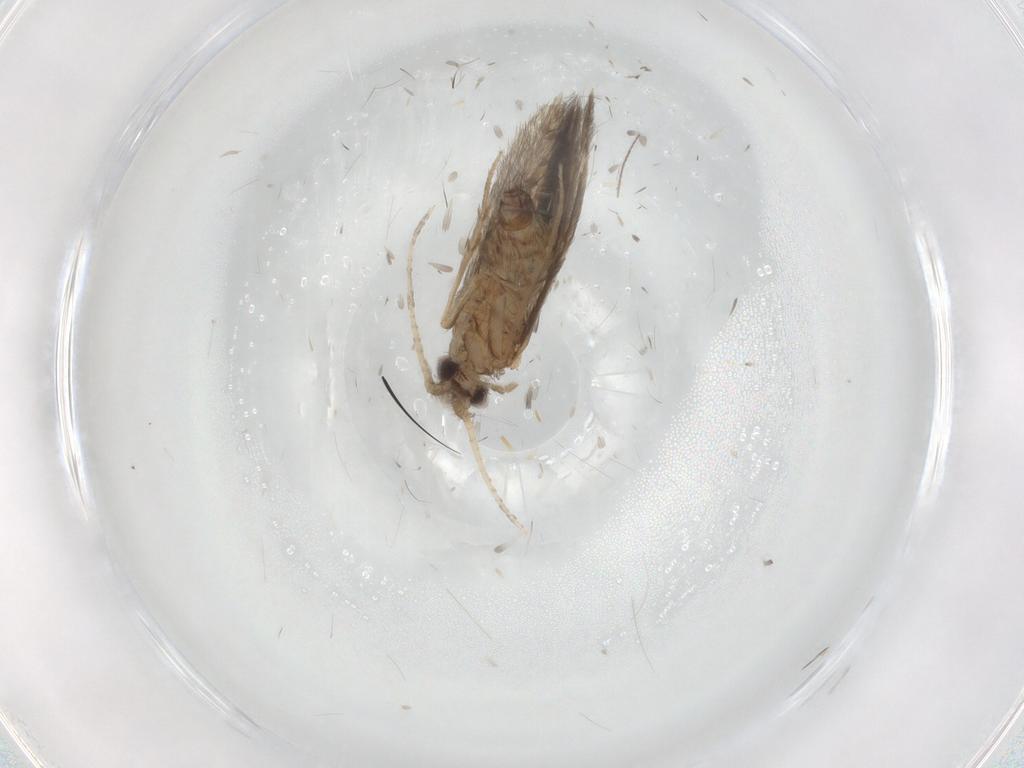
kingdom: Animalia
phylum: Arthropoda
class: Insecta
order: Trichoptera
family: Hydroptilidae
